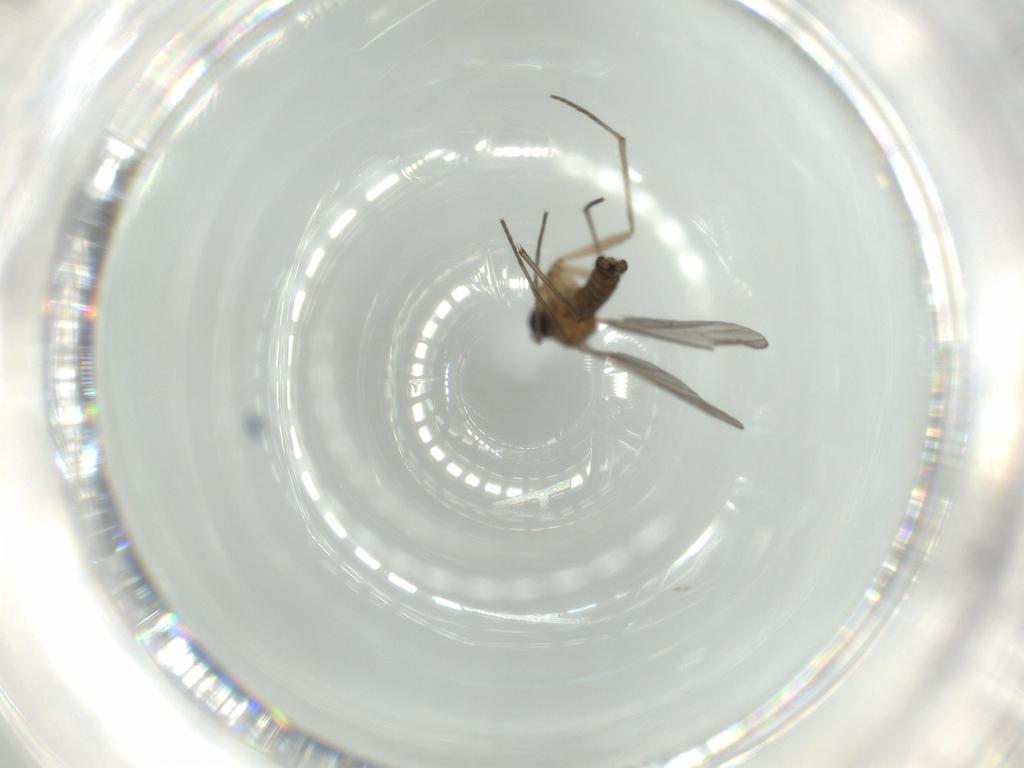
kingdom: Animalia
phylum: Arthropoda
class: Insecta
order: Diptera
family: Sciaridae
